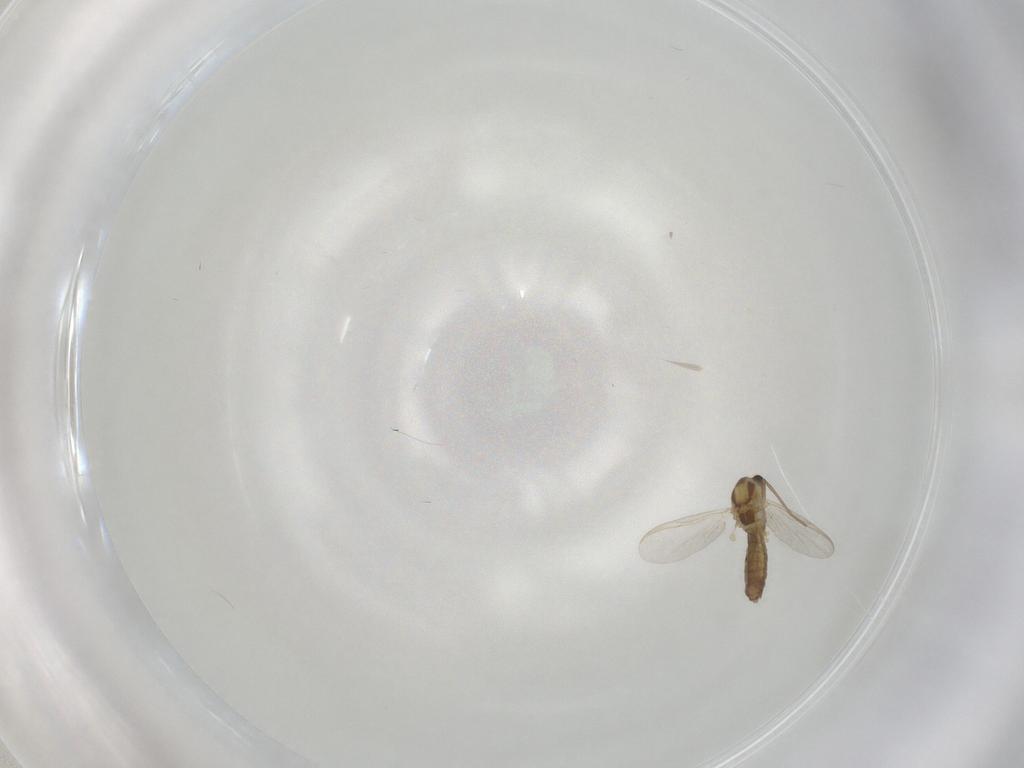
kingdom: Animalia
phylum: Arthropoda
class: Insecta
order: Diptera
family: Chironomidae
